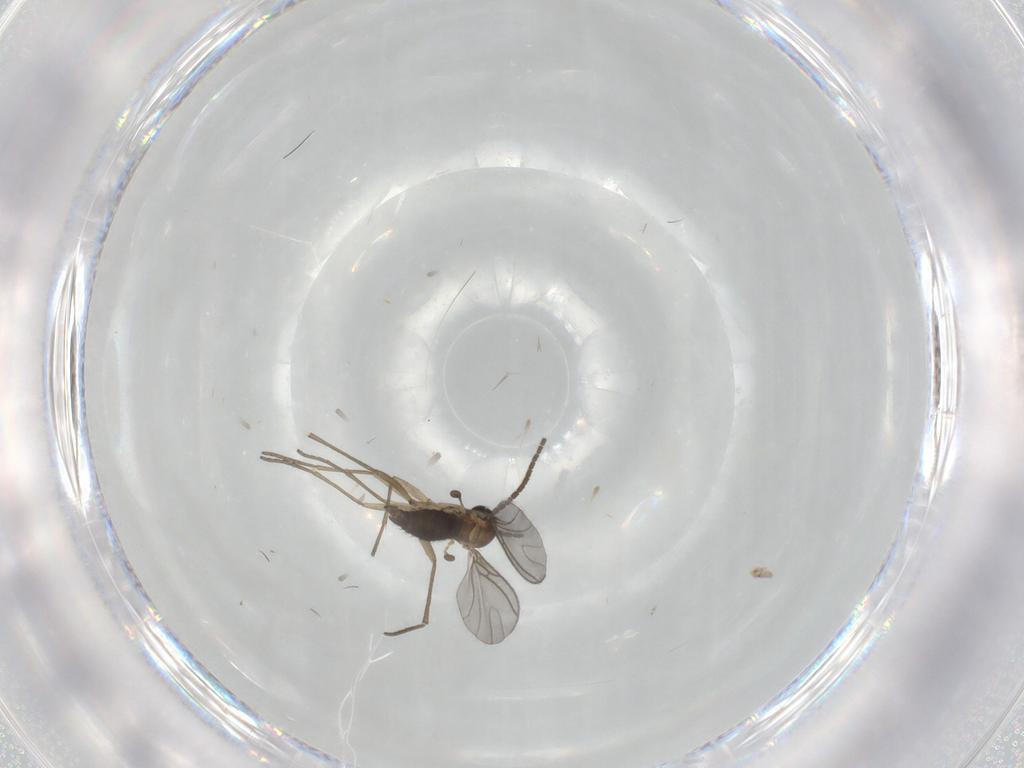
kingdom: Animalia
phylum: Arthropoda
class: Insecta
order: Diptera
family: Sciaridae
